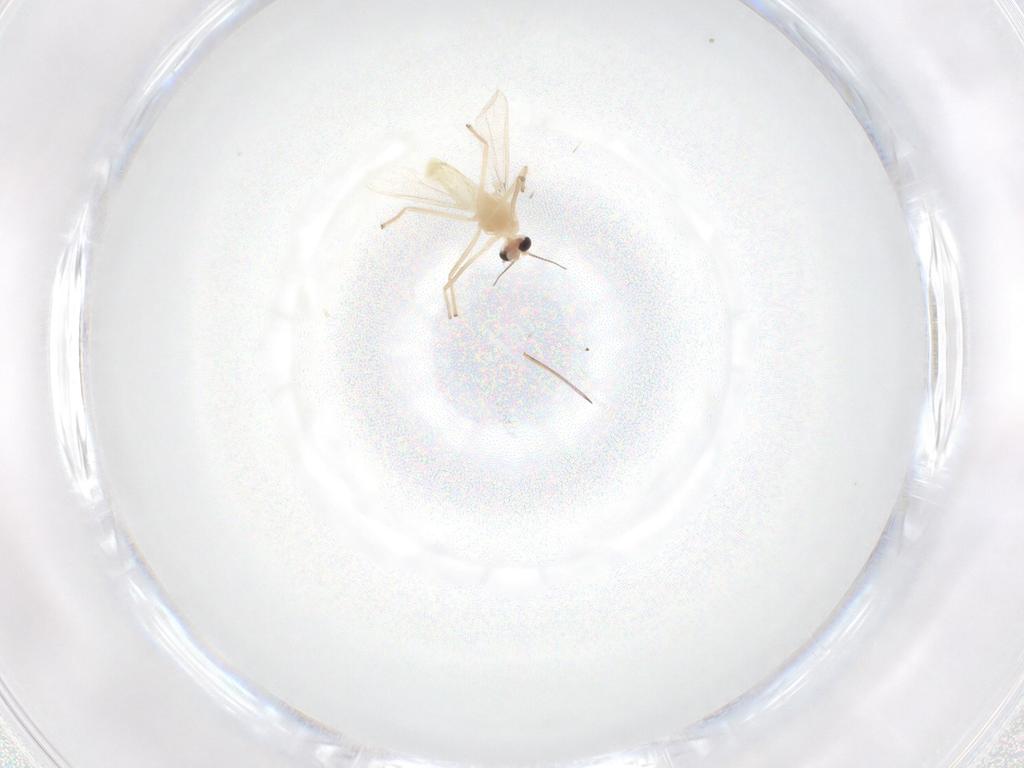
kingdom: Animalia
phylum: Arthropoda
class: Insecta
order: Diptera
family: Chironomidae
